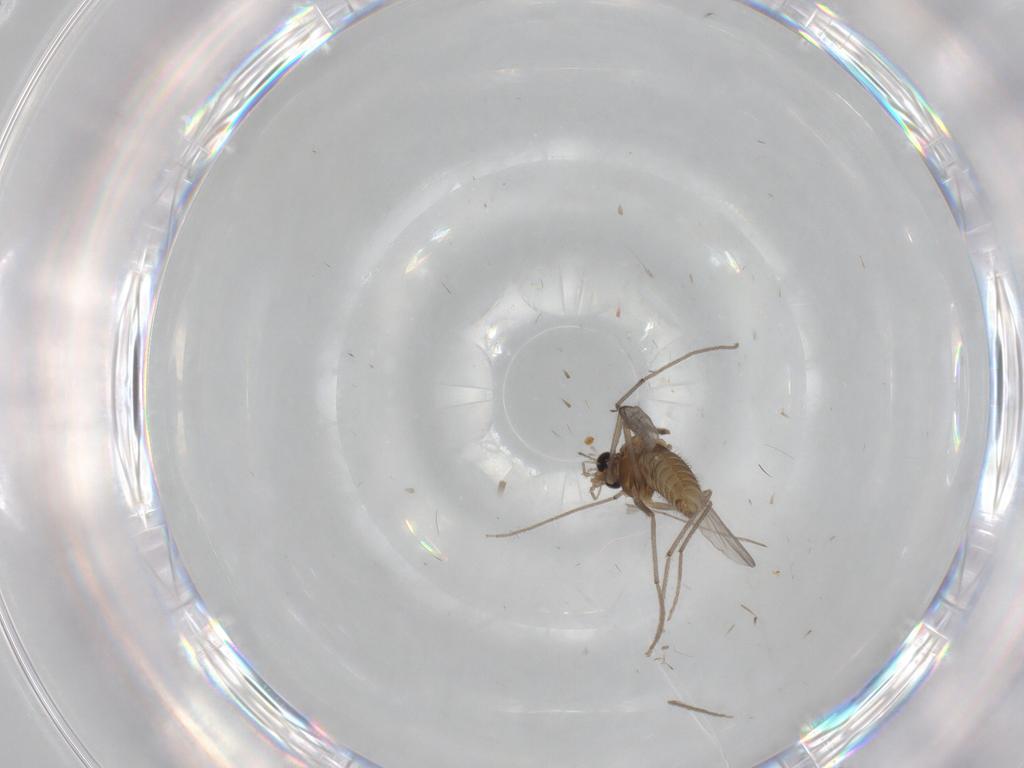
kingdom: Animalia
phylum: Arthropoda
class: Insecta
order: Diptera
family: Chironomidae
